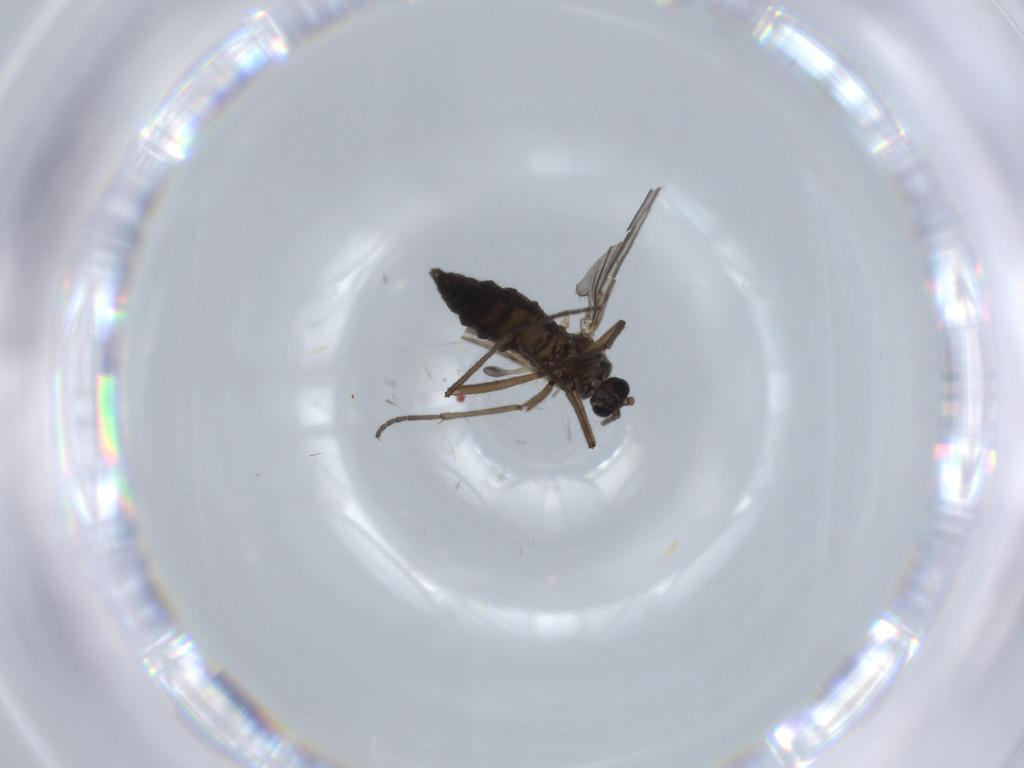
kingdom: Animalia
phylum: Arthropoda
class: Insecta
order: Diptera
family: Sciaridae
